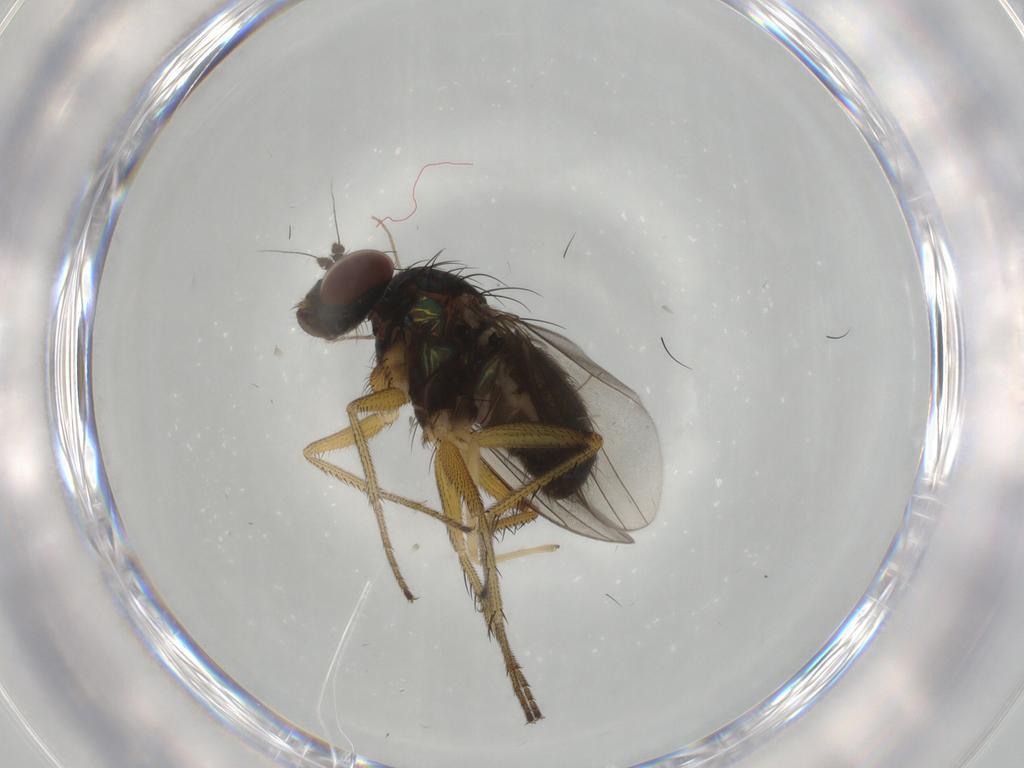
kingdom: Animalia
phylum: Arthropoda
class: Insecta
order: Diptera
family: Dolichopodidae
